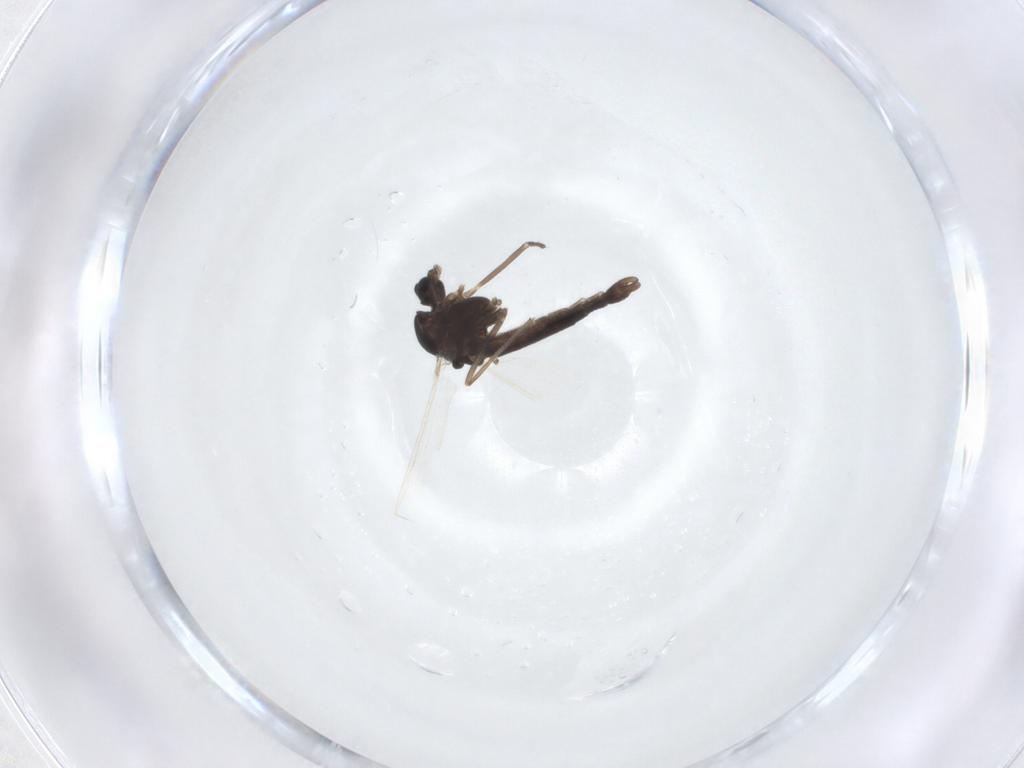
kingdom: Animalia
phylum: Arthropoda
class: Insecta
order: Diptera
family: Chironomidae
